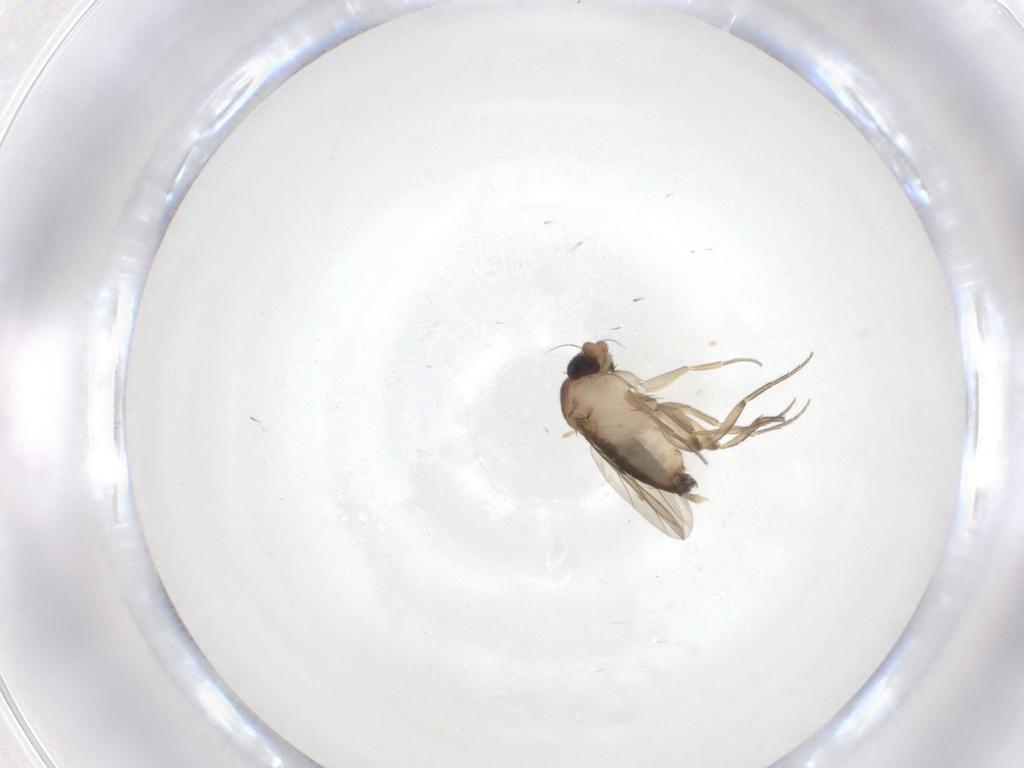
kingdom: Animalia
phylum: Arthropoda
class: Insecta
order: Diptera
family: Phoridae
